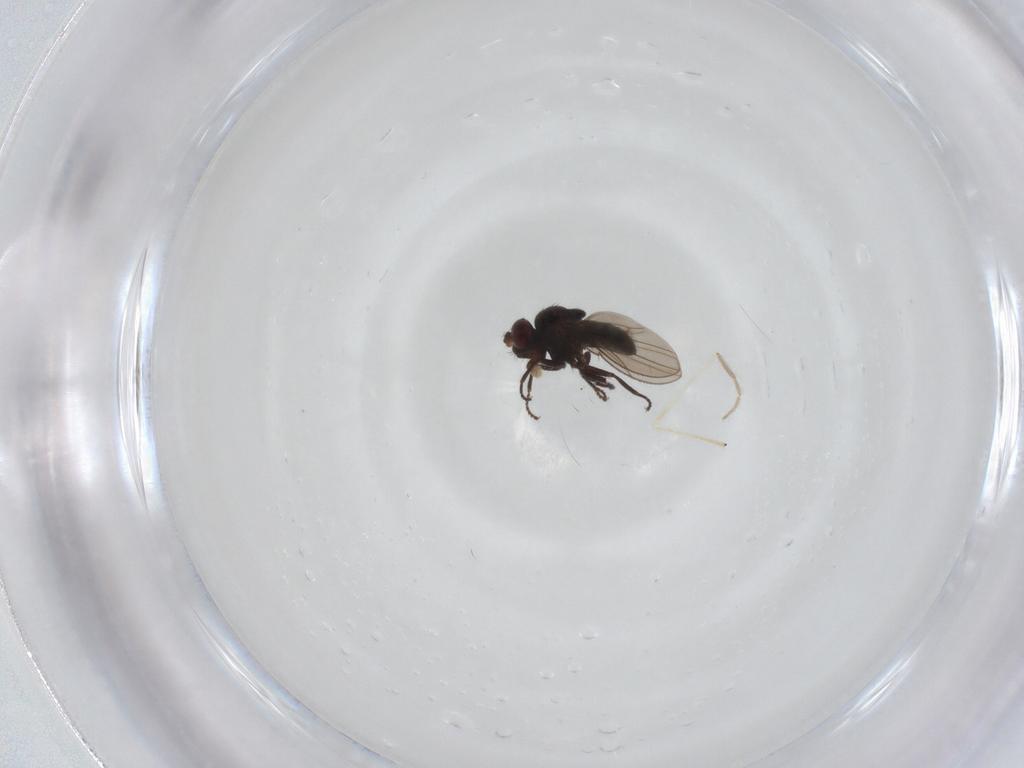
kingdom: Animalia
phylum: Arthropoda
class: Insecta
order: Diptera
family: Ephydridae
